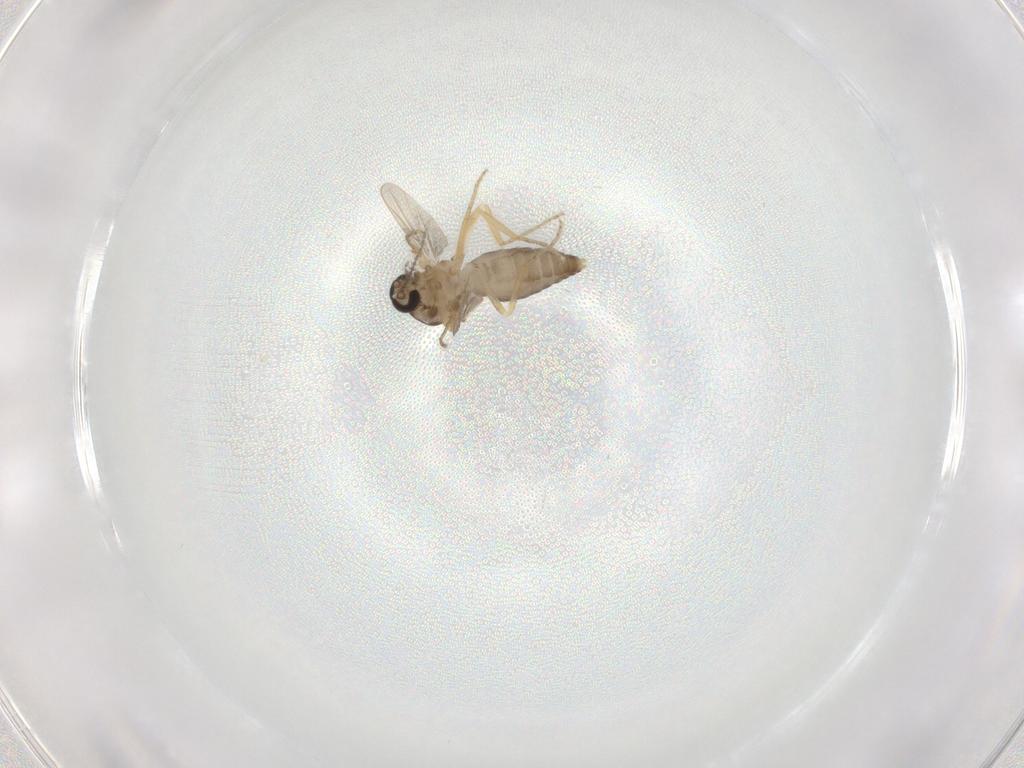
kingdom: Animalia
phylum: Arthropoda
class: Insecta
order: Diptera
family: Ceratopogonidae
